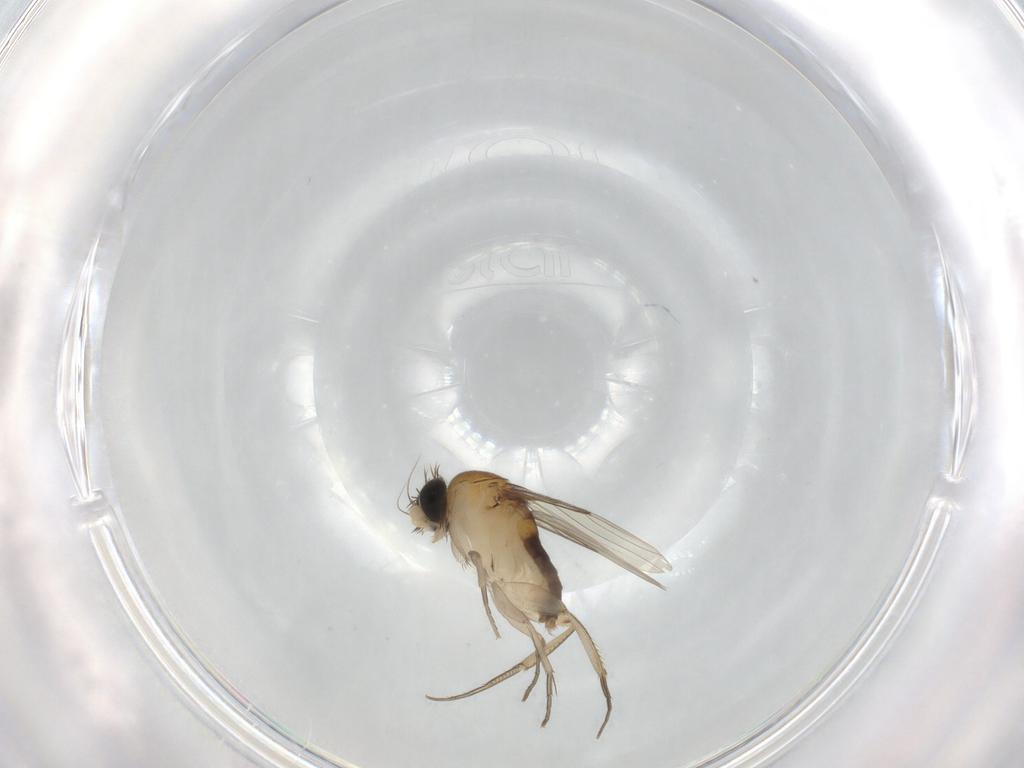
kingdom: Animalia
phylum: Arthropoda
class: Insecta
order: Diptera
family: Phoridae
